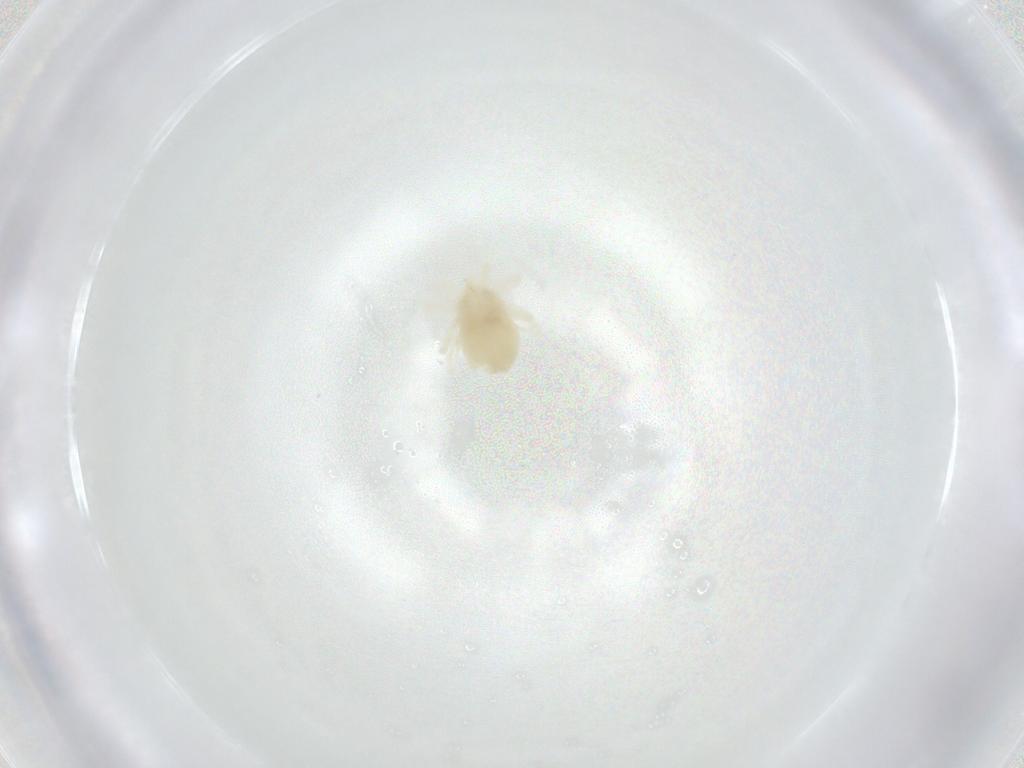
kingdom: Animalia
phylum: Arthropoda
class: Arachnida
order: Trombidiformes
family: Anystidae
